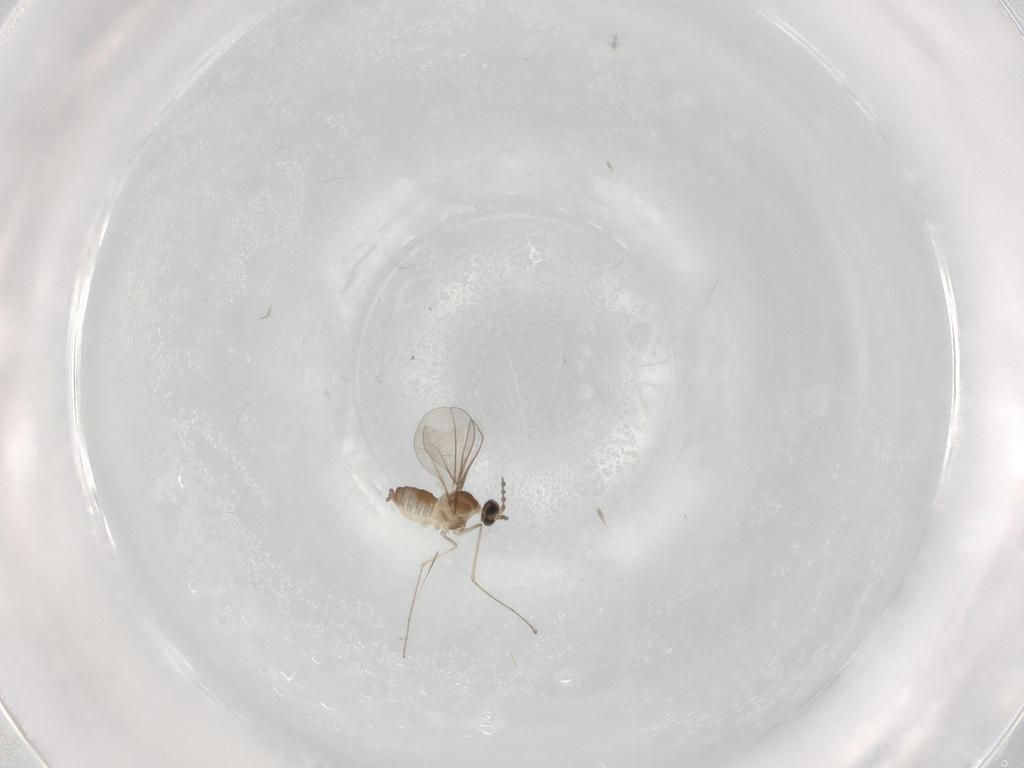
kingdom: Animalia
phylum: Arthropoda
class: Insecta
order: Diptera
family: Cecidomyiidae
